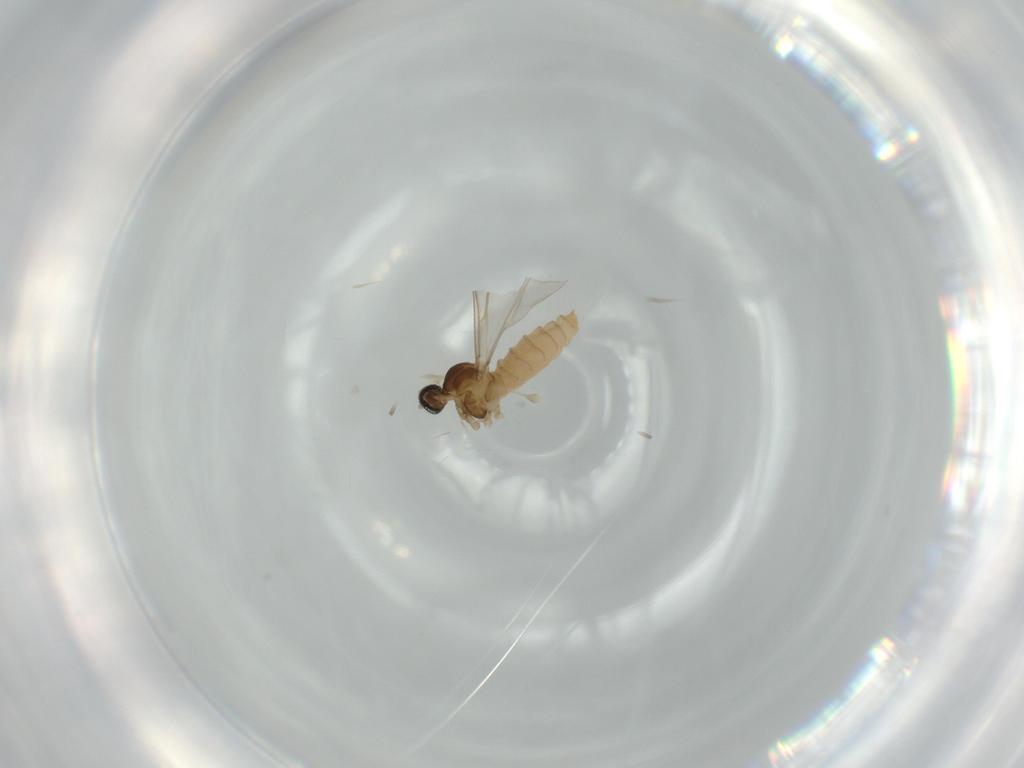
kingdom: Animalia
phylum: Arthropoda
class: Insecta
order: Diptera
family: Cecidomyiidae
